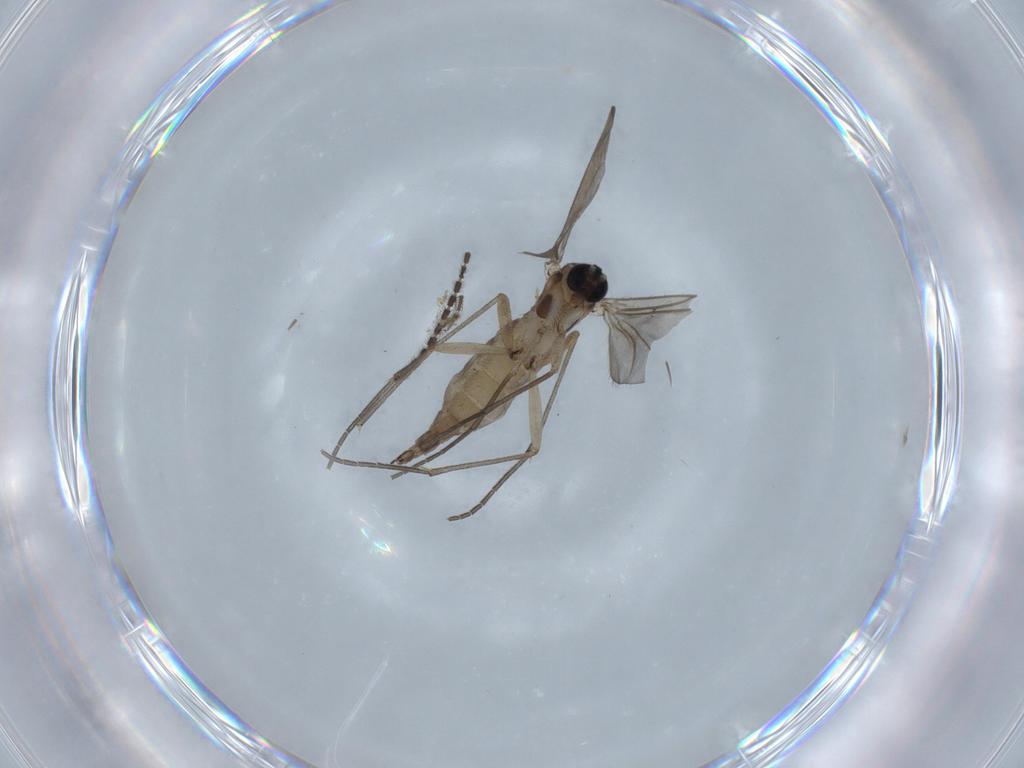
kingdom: Animalia
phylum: Arthropoda
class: Insecta
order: Diptera
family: Sciaridae
